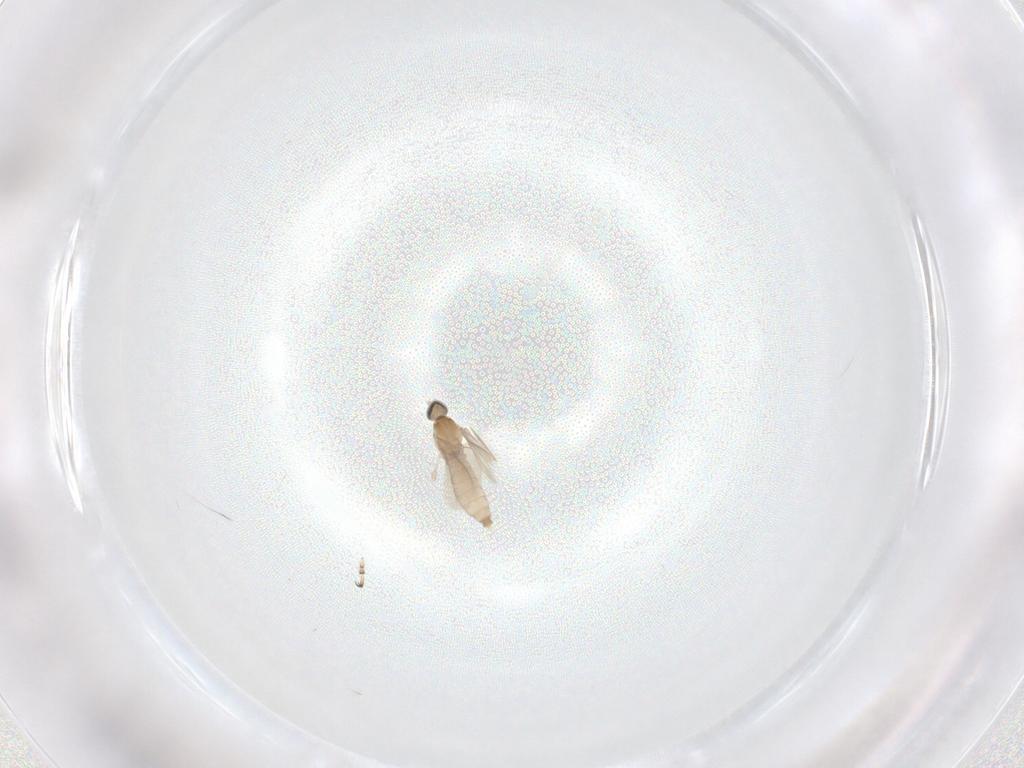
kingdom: Animalia
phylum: Arthropoda
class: Insecta
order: Diptera
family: Cecidomyiidae
